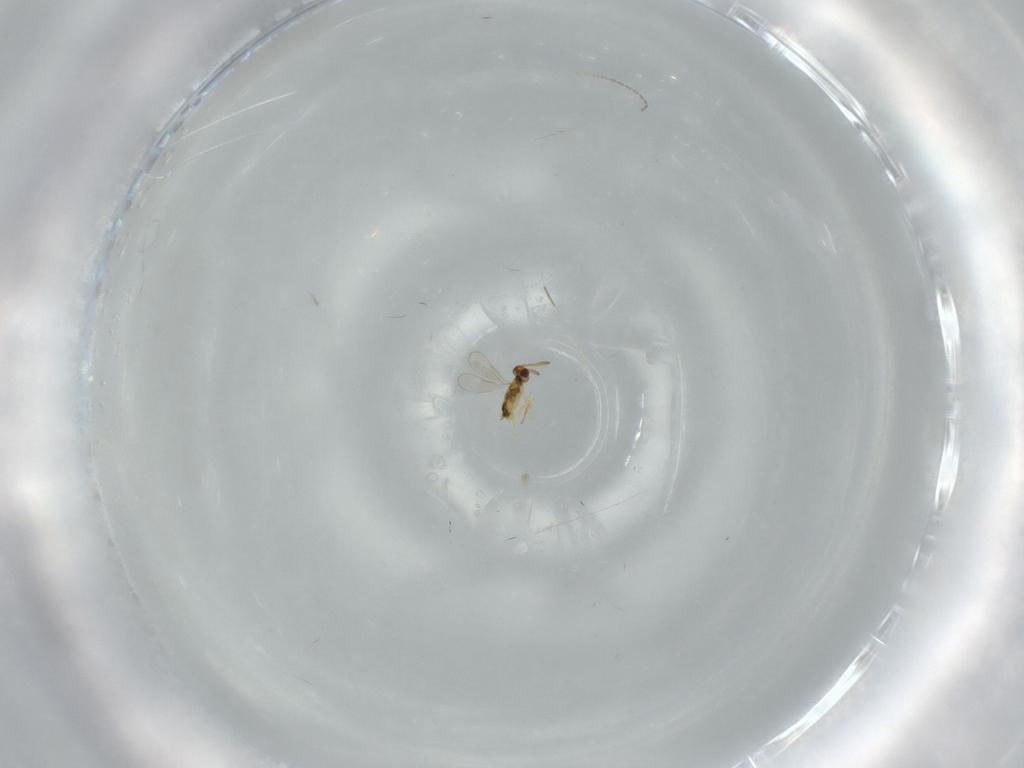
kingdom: Animalia
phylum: Arthropoda
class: Insecta
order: Hymenoptera
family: Aphelinidae
